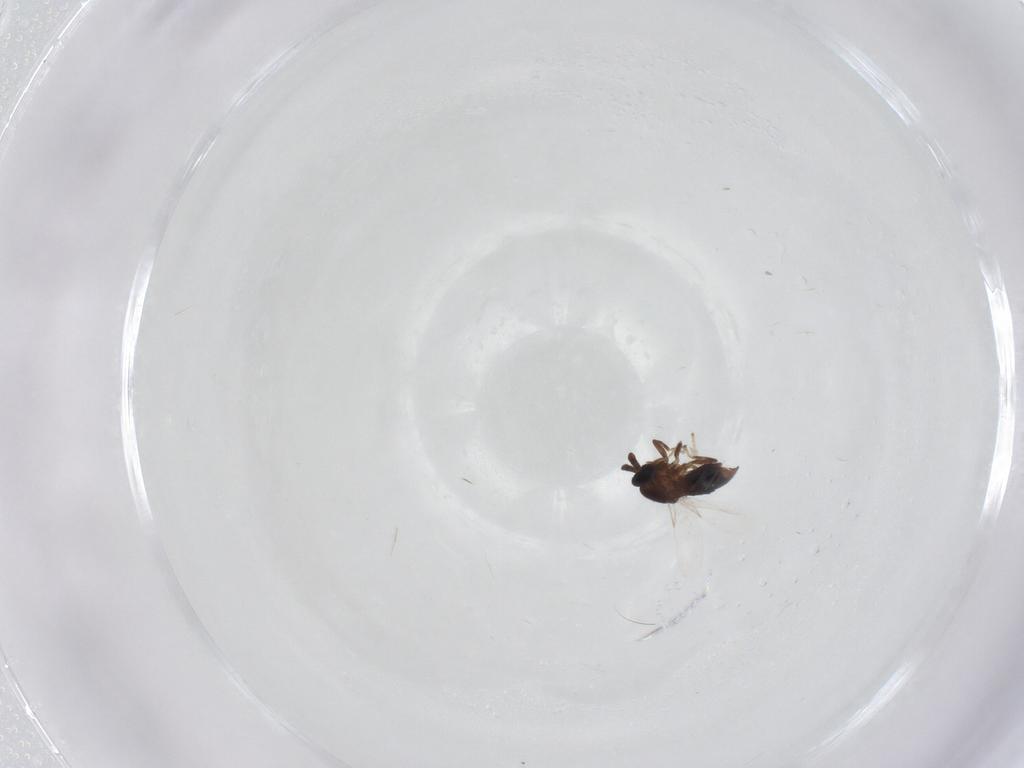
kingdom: Animalia
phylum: Arthropoda
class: Insecta
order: Diptera
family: Scatopsidae
